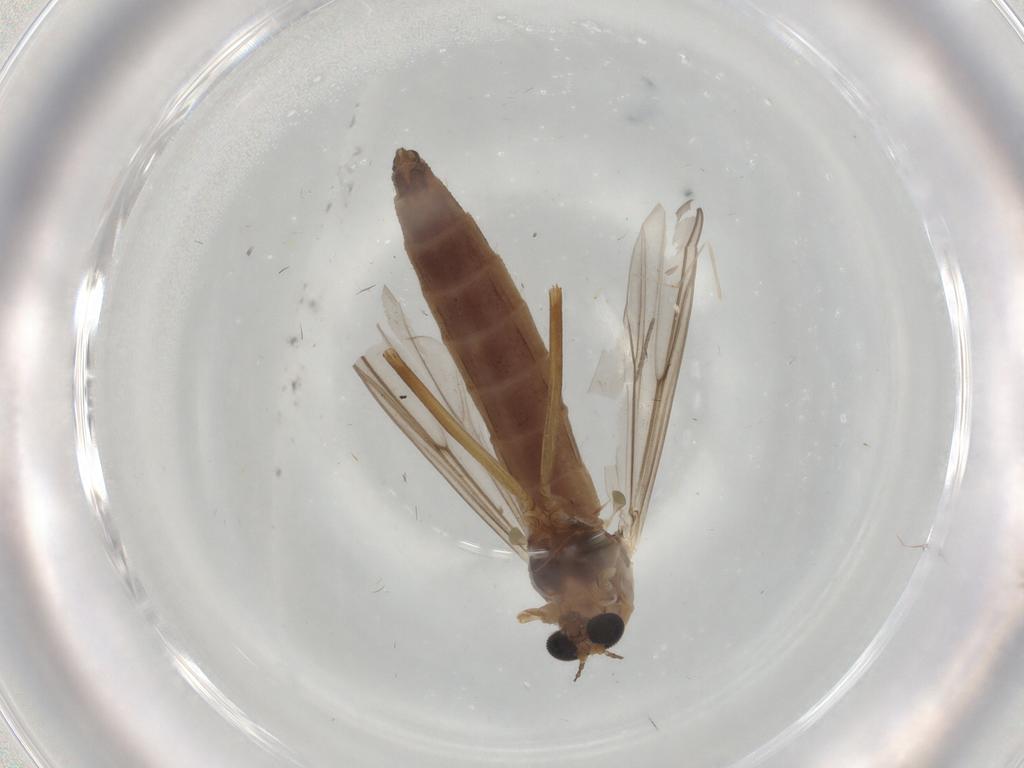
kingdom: Animalia
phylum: Arthropoda
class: Insecta
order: Diptera
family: Chironomidae
